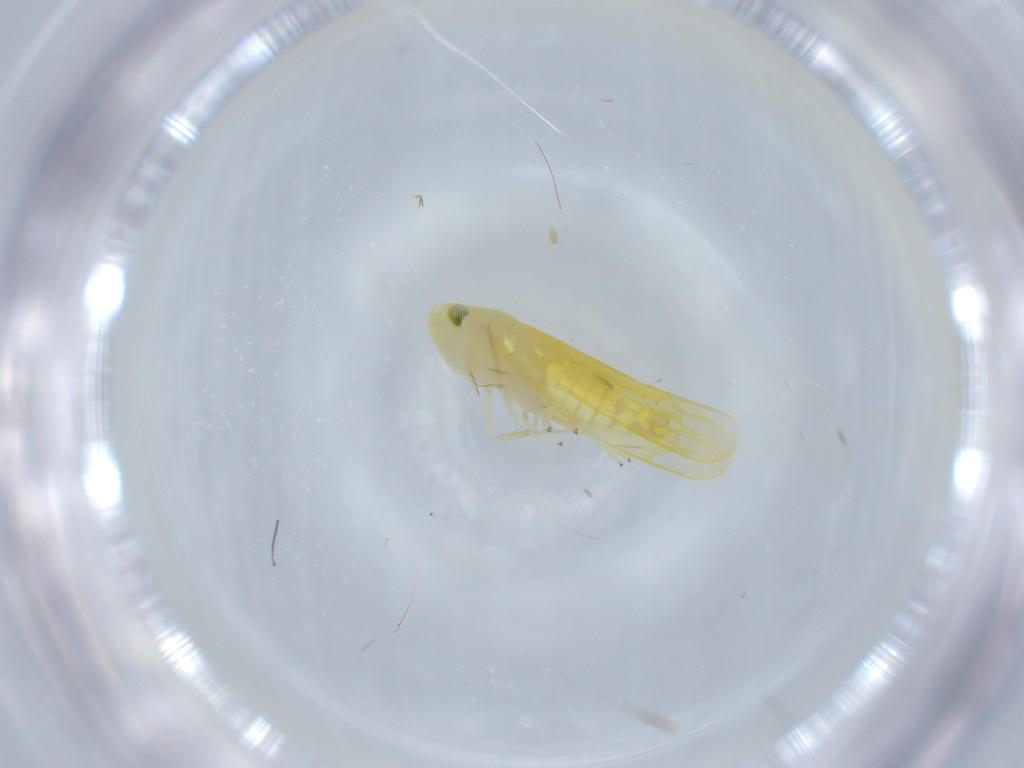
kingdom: Animalia
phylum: Arthropoda
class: Insecta
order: Hemiptera
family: Cicadellidae
